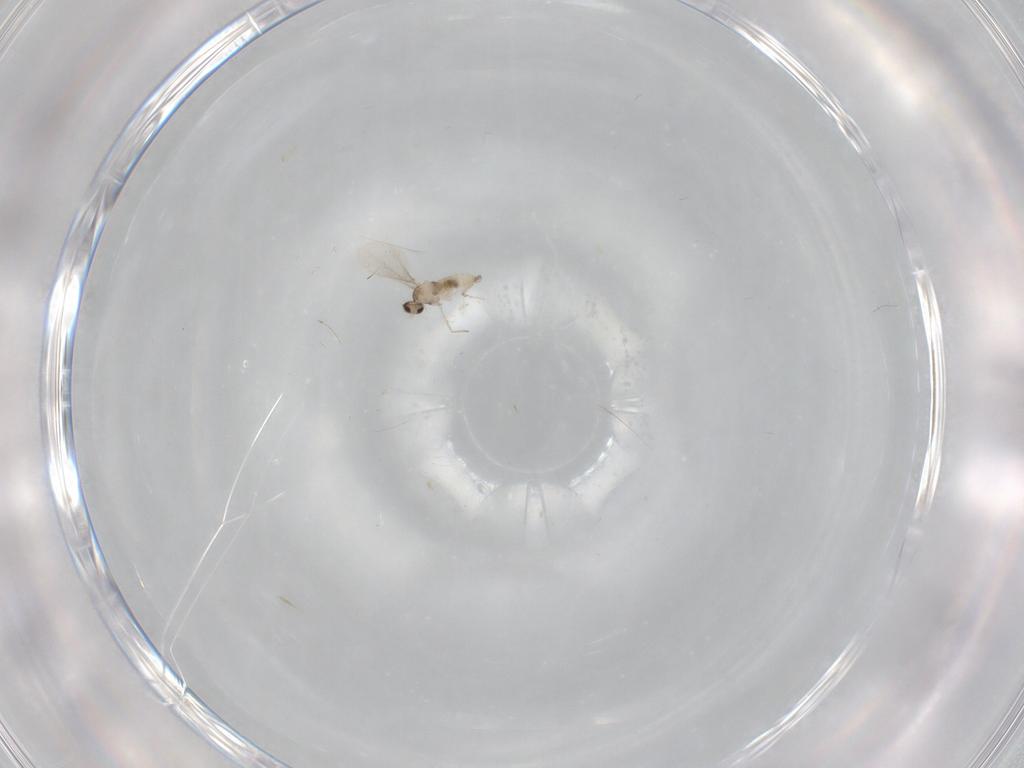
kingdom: Animalia
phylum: Arthropoda
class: Insecta
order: Diptera
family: Cecidomyiidae
